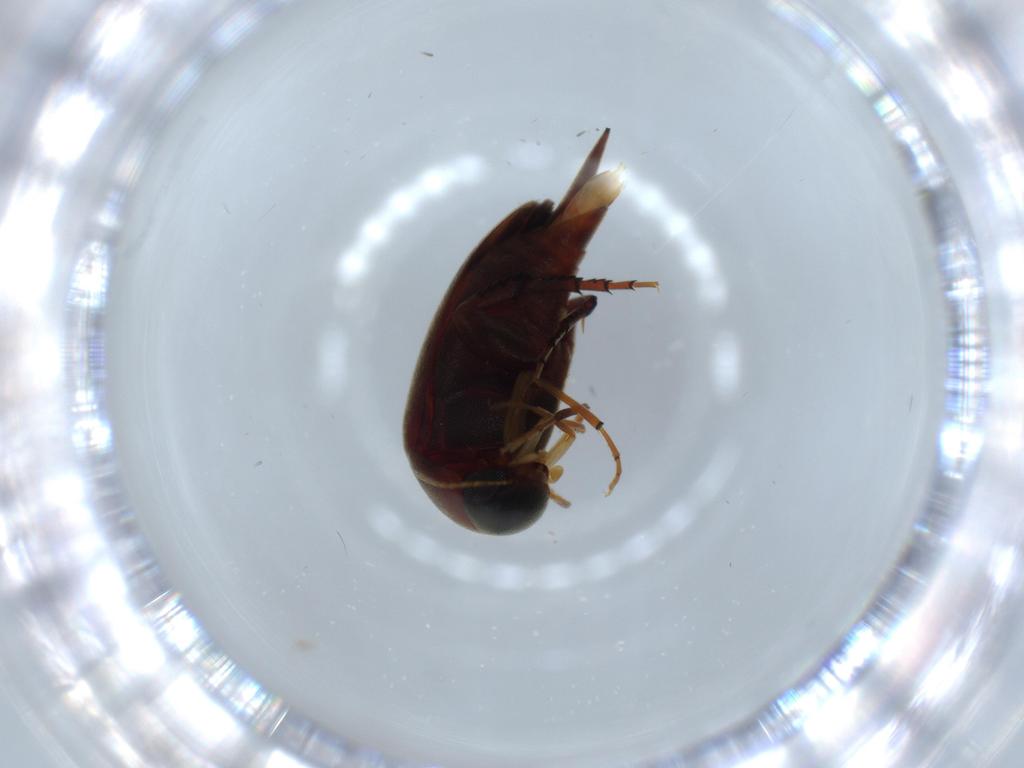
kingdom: Animalia
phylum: Arthropoda
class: Insecta
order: Coleoptera
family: Mordellidae
